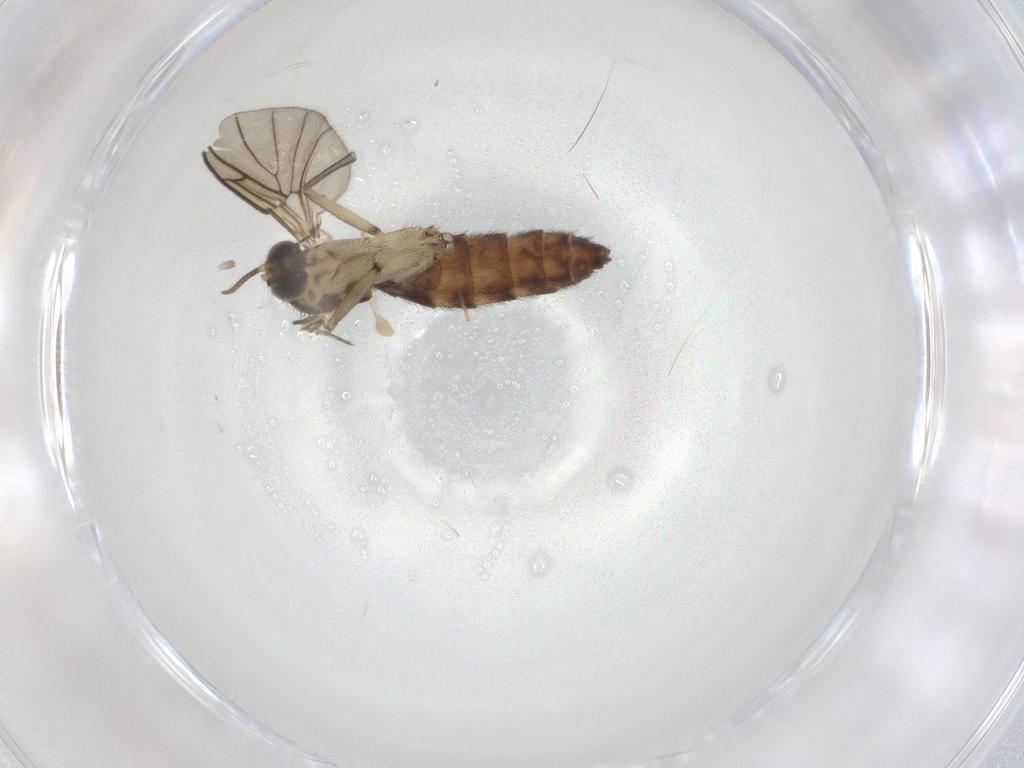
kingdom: Animalia
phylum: Arthropoda
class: Insecta
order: Diptera
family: Keroplatidae
